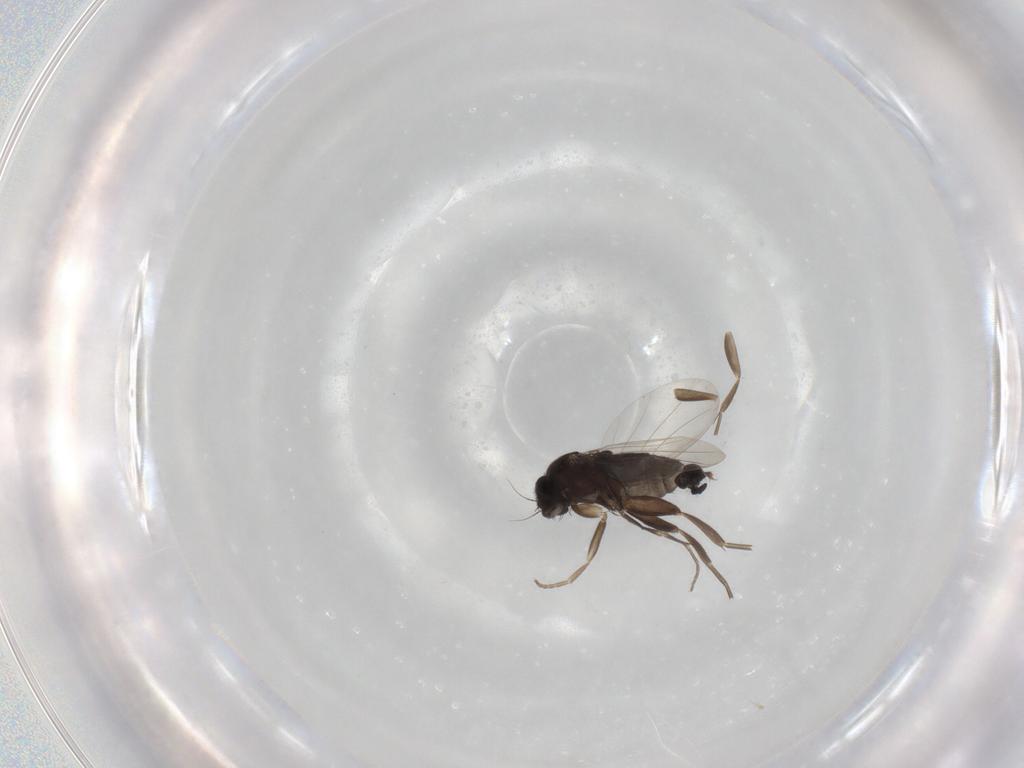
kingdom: Animalia
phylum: Arthropoda
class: Insecta
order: Diptera
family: Phoridae
